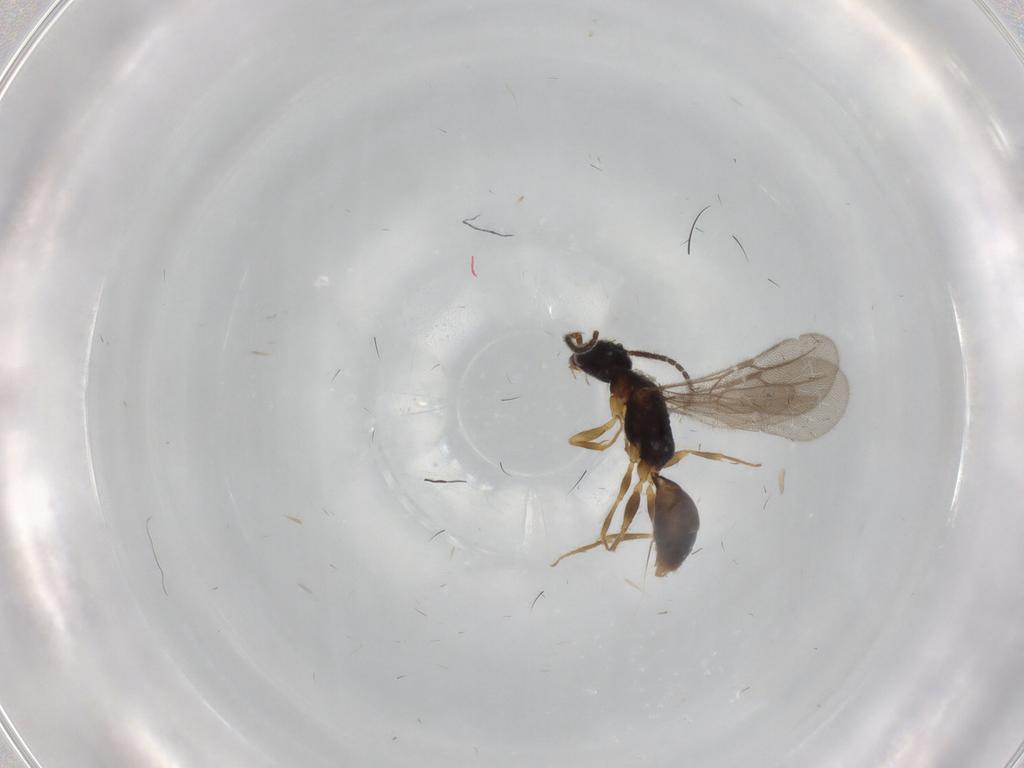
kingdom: Animalia
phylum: Arthropoda
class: Insecta
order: Hymenoptera
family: Bethylidae
